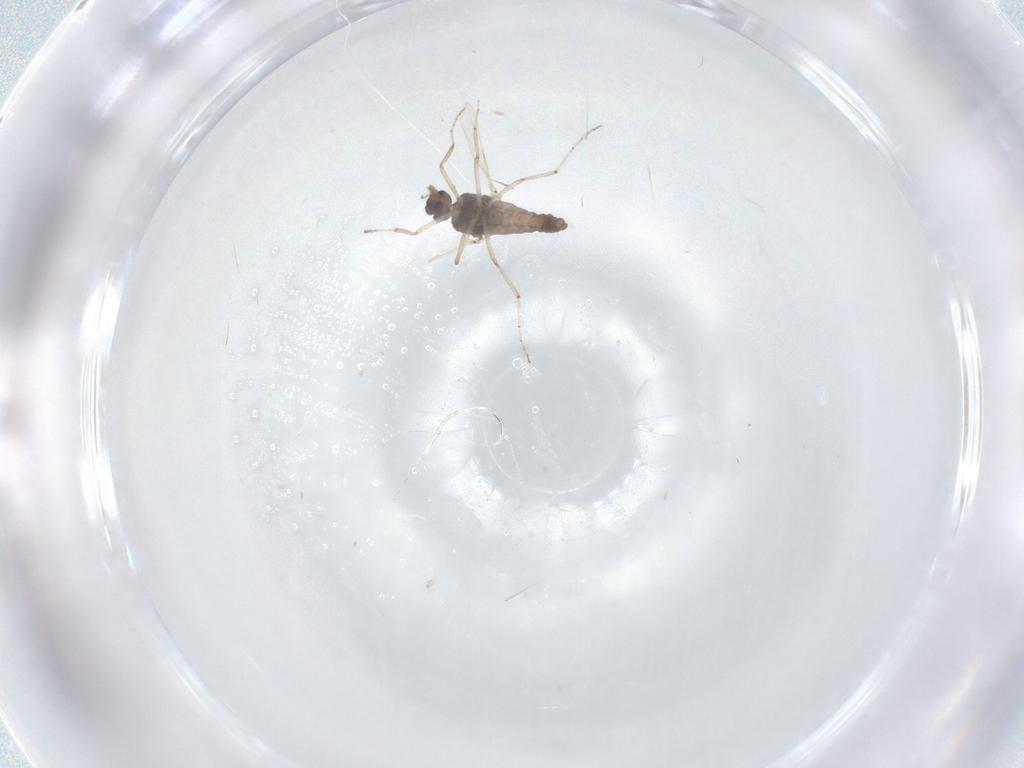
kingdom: Animalia
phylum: Arthropoda
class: Insecta
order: Diptera
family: Ceratopogonidae
